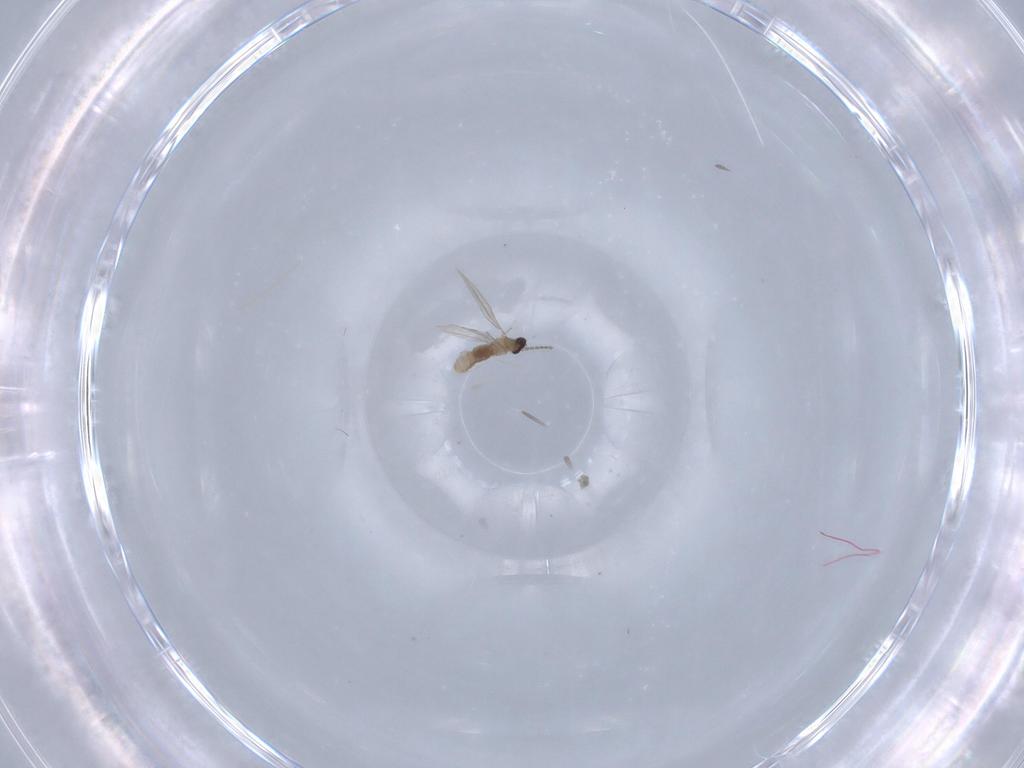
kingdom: Animalia
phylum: Arthropoda
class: Insecta
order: Diptera
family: Cecidomyiidae
